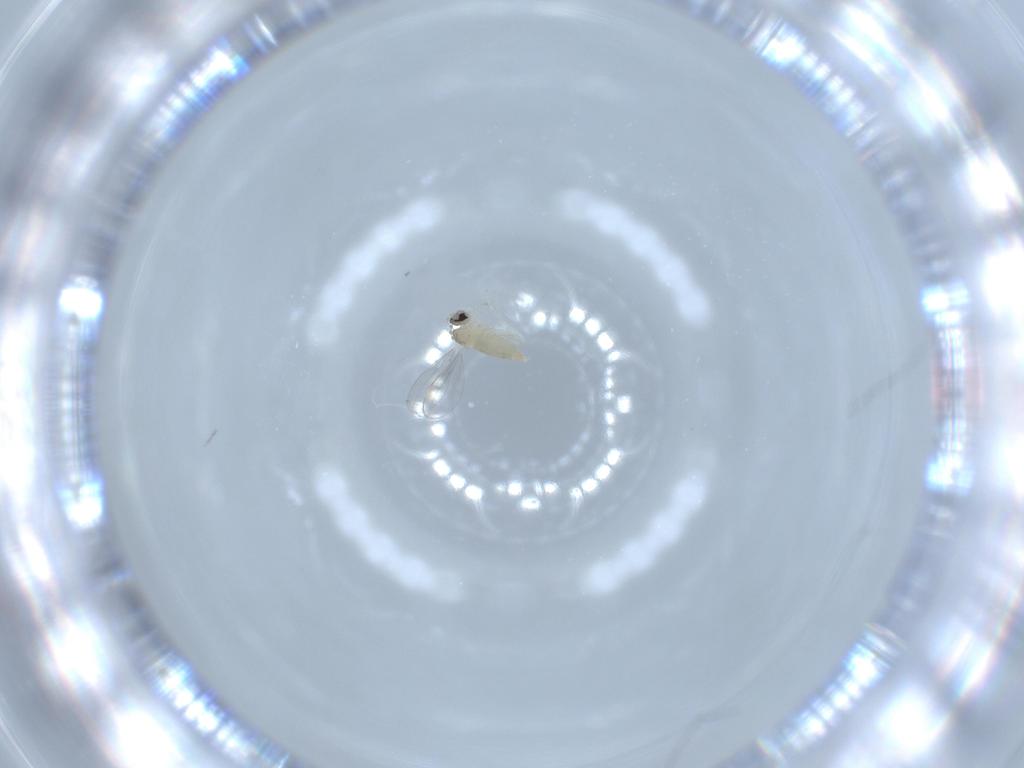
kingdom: Animalia
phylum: Arthropoda
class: Insecta
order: Diptera
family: Cecidomyiidae
